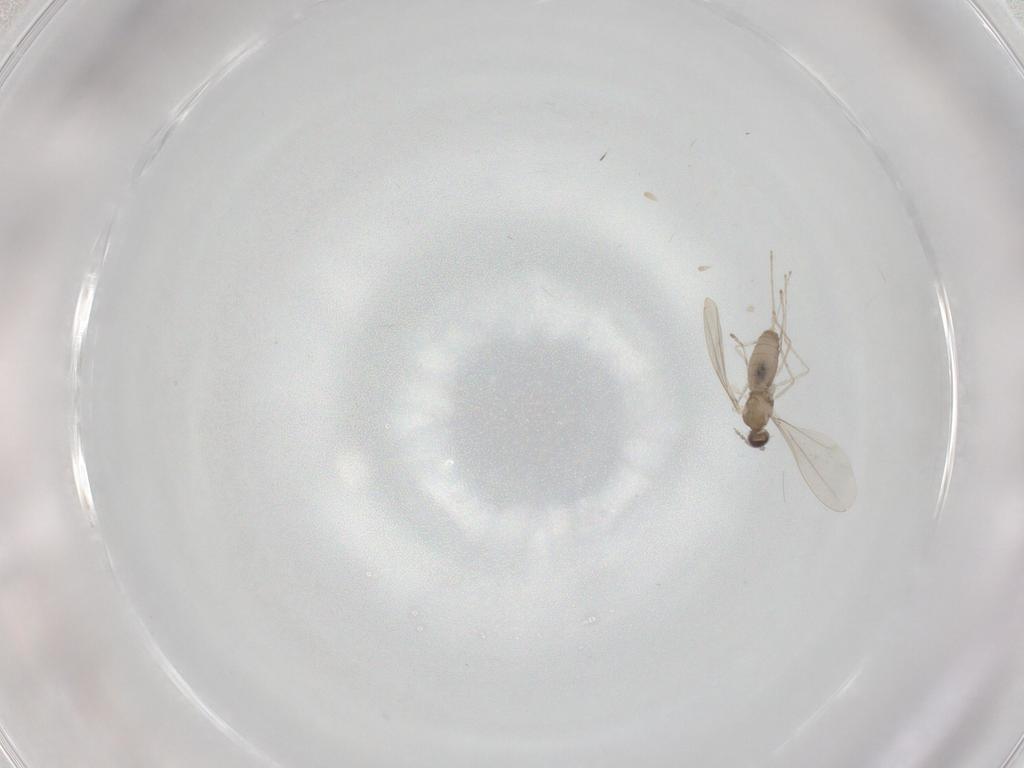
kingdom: Animalia
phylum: Arthropoda
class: Insecta
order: Diptera
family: Cecidomyiidae
